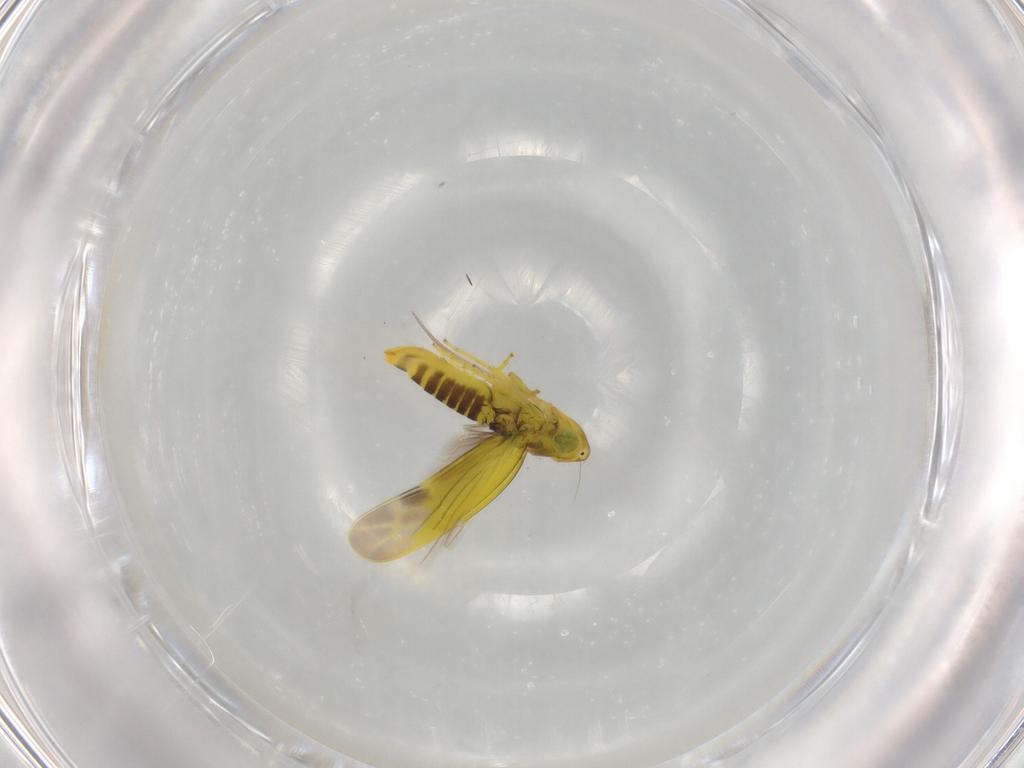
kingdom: Animalia
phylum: Arthropoda
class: Insecta
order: Hemiptera
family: Cicadellidae
